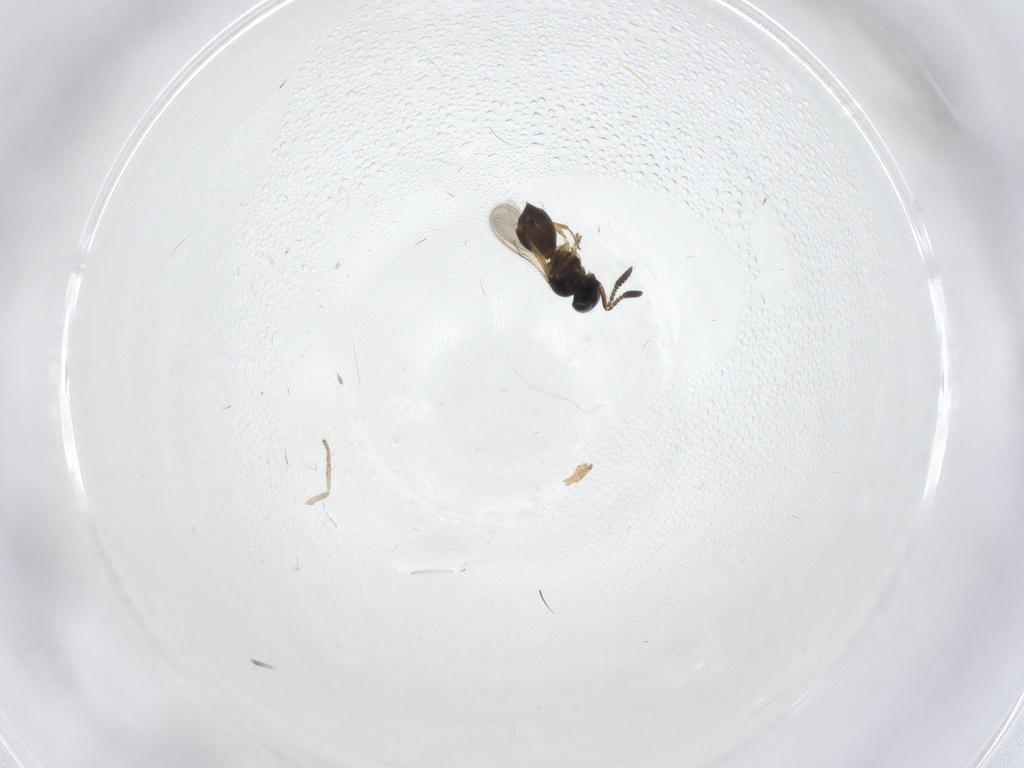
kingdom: Animalia
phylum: Arthropoda
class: Insecta
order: Hymenoptera
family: Scelionidae
